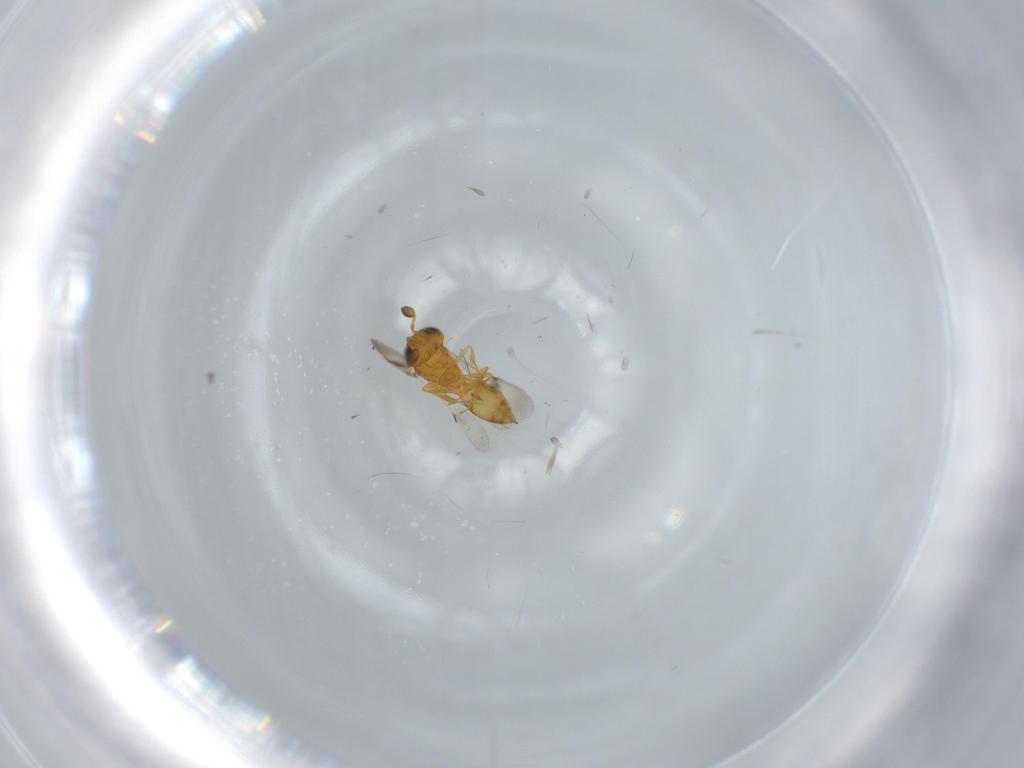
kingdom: Animalia
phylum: Arthropoda
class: Insecta
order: Hymenoptera
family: Scelionidae
